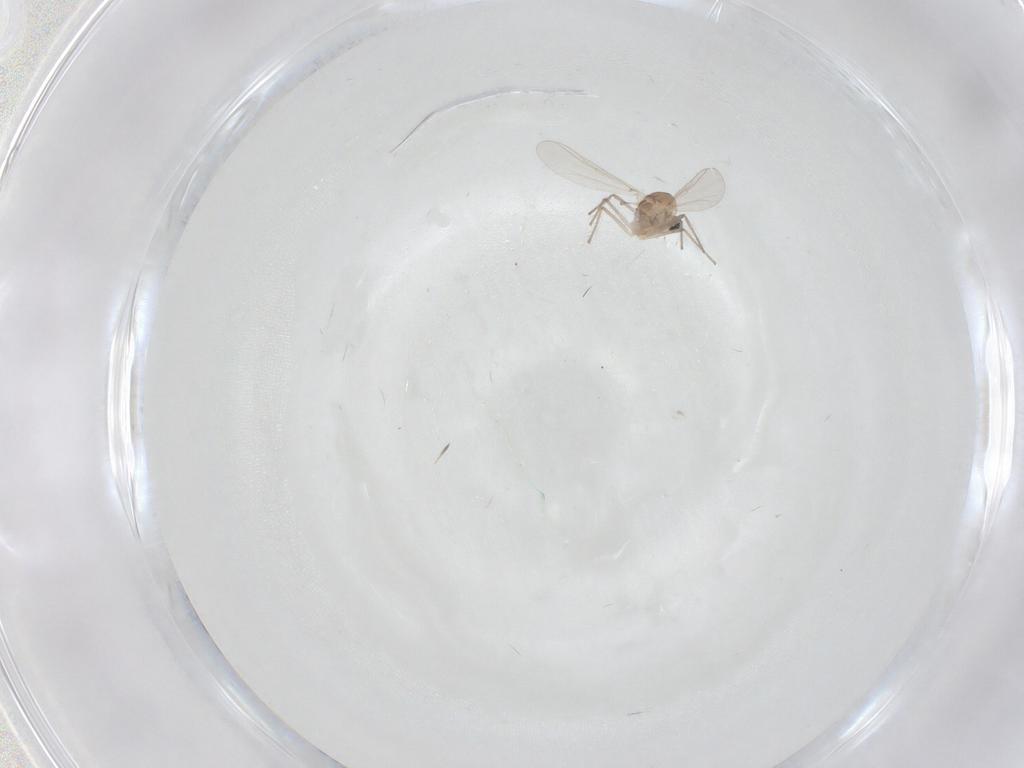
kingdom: Animalia
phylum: Arthropoda
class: Insecta
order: Diptera
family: Chironomidae
